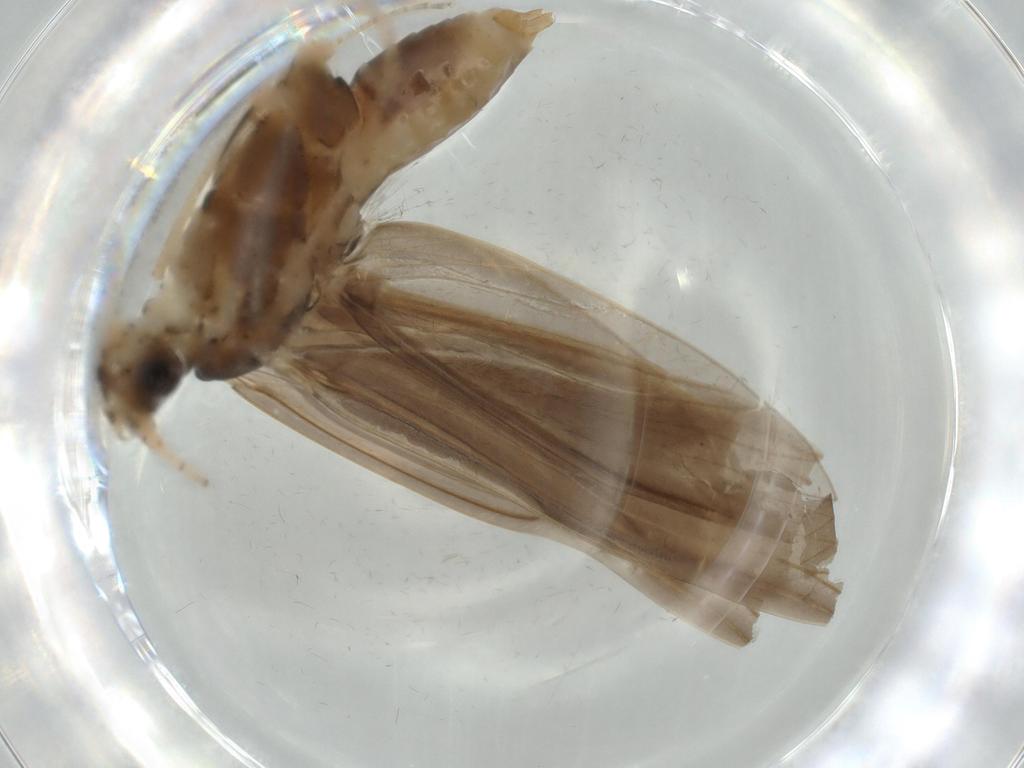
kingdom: Animalia
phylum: Arthropoda
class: Insecta
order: Trichoptera
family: Leptoceridae
